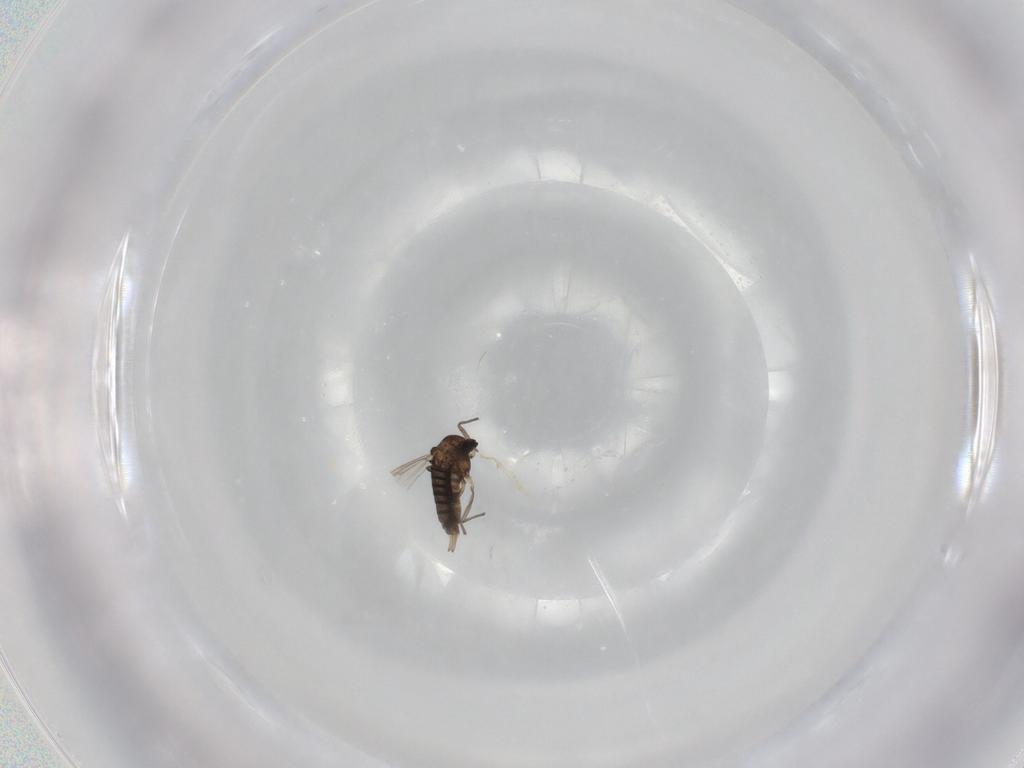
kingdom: Animalia
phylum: Arthropoda
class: Insecta
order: Diptera
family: Chironomidae
